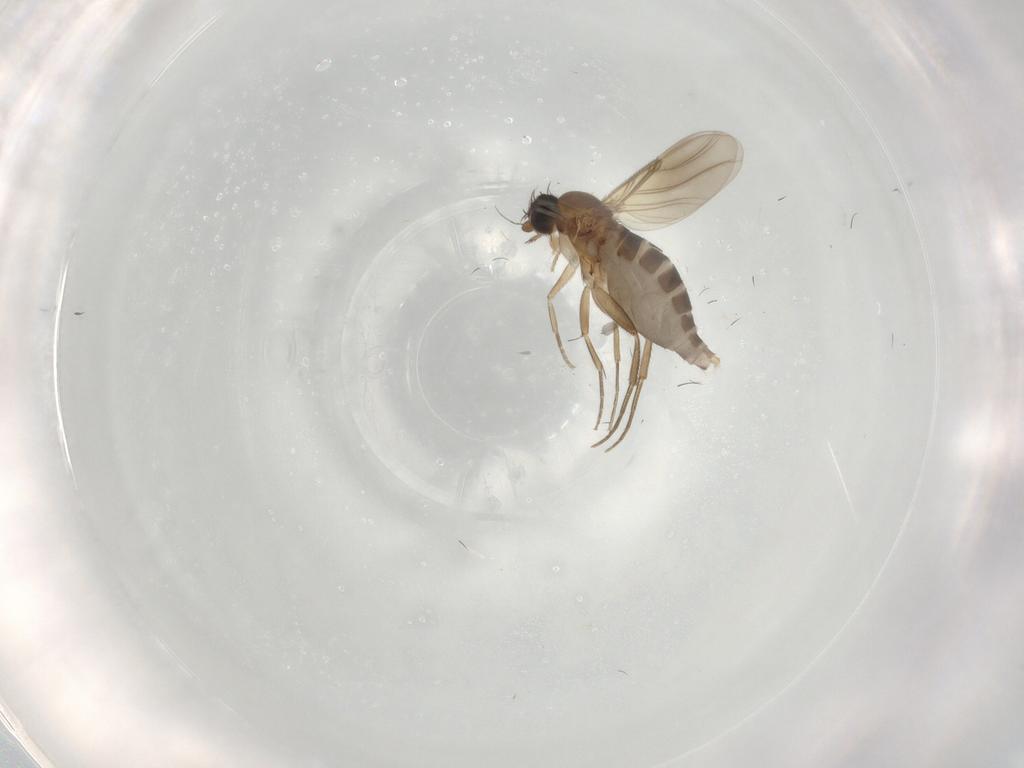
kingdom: Animalia
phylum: Arthropoda
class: Insecta
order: Diptera
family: Phoridae
